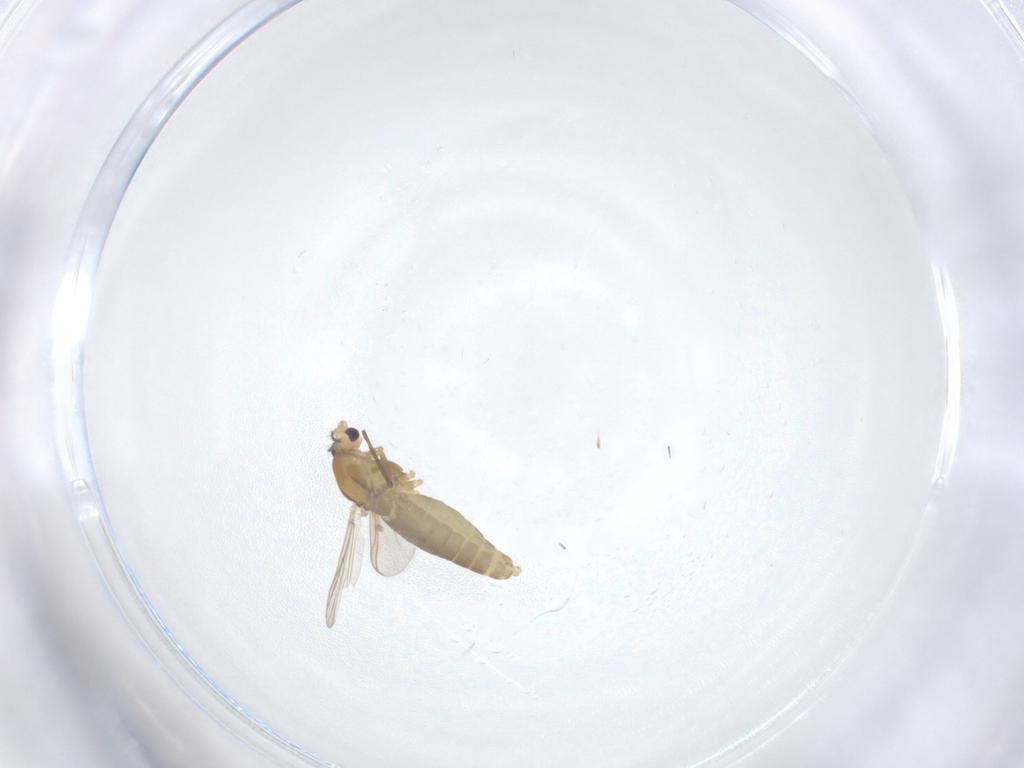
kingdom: Animalia
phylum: Arthropoda
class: Insecta
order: Diptera
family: Chironomidae
